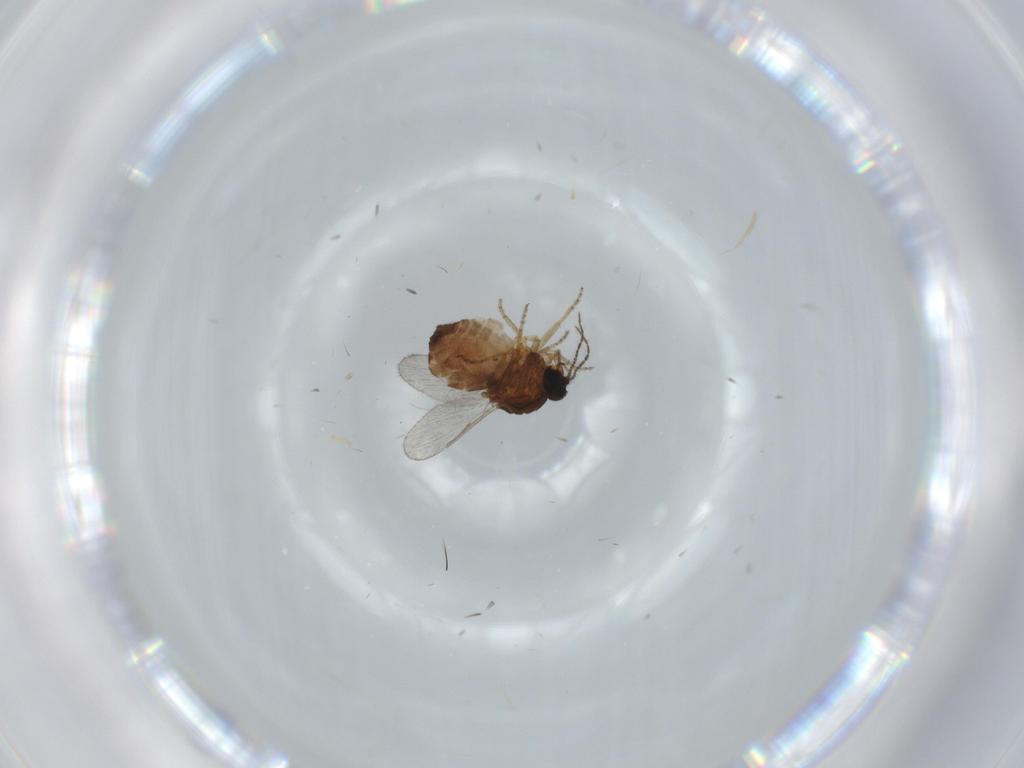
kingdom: Animalia
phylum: Arthropoda
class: Insecta
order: Diptera
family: Ceratopogonidae
